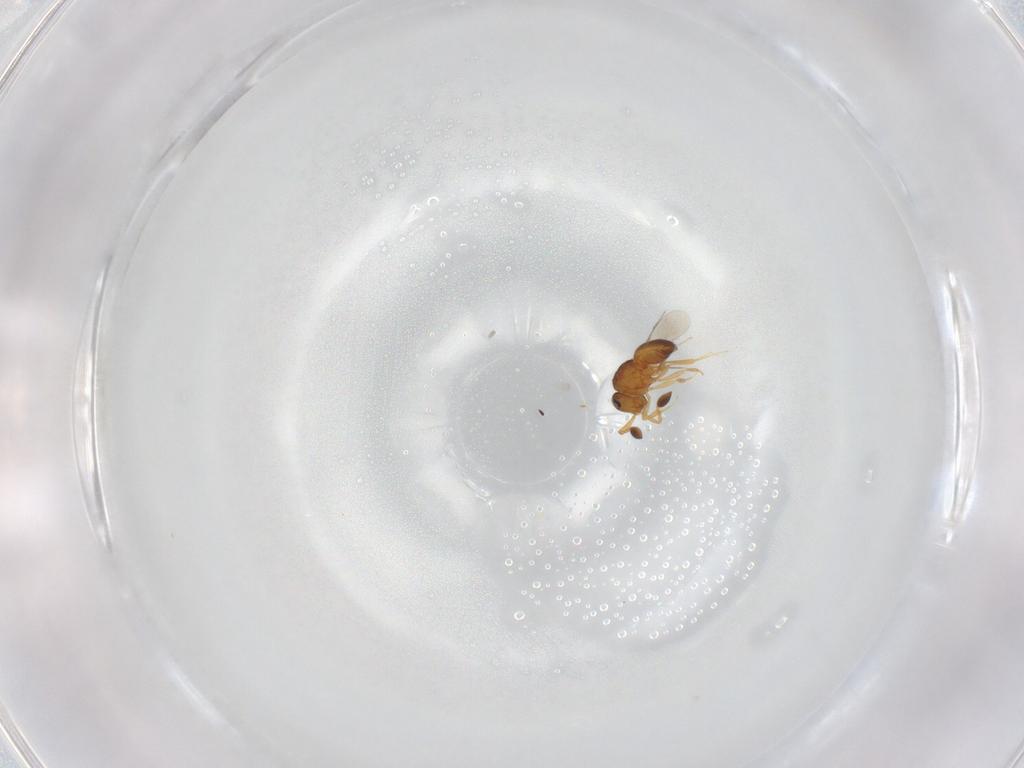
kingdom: Animalia
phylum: Arthropoda
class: Insecta
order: Hymenoptera
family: Scelionidae
